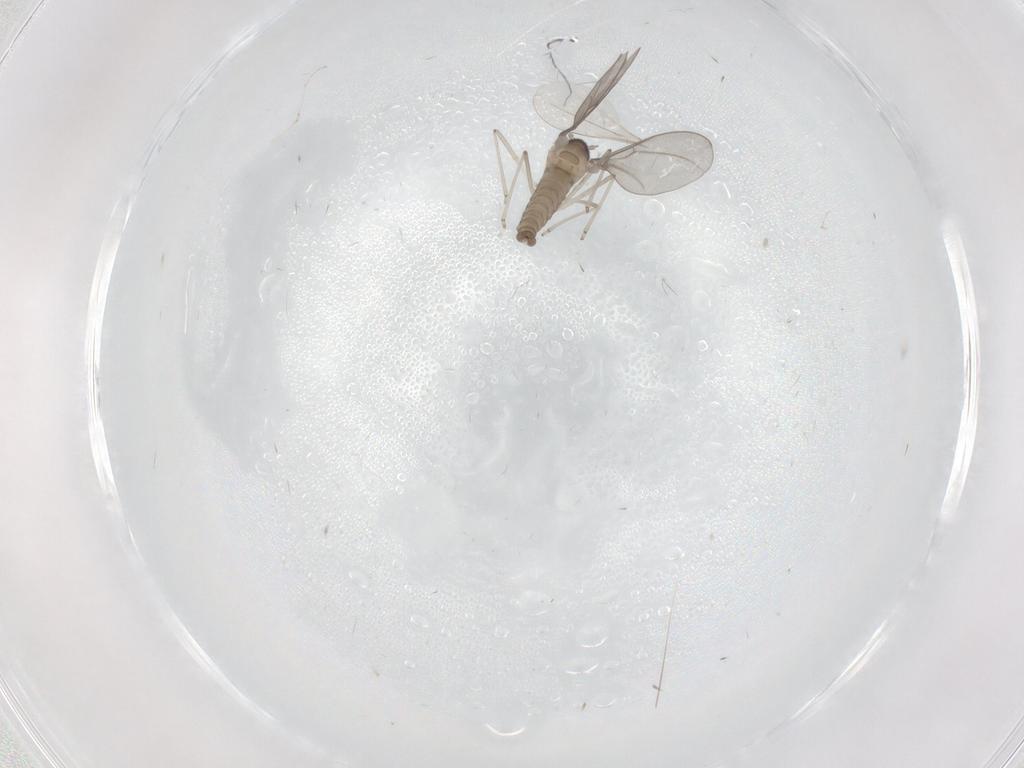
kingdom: Animalia
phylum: Arthropoda
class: Insecta
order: Diptera
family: Cecidomyiidae
